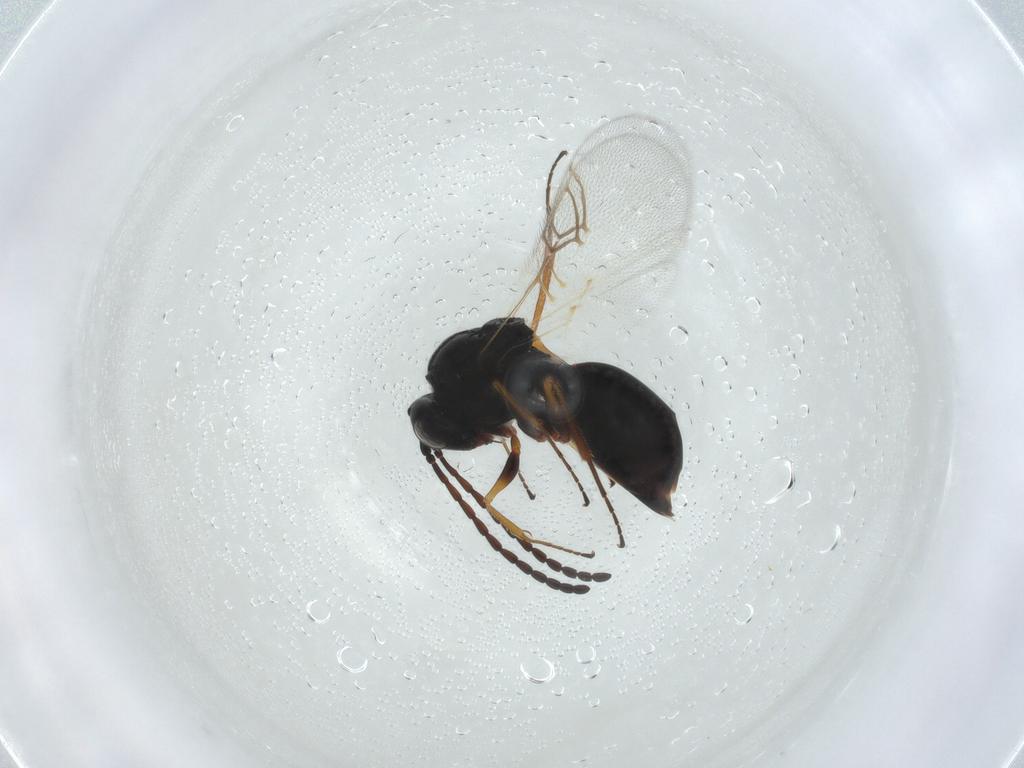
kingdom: Animalia
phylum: Arthropoda
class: Insecta
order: Hymenoptera
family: Figitidae
